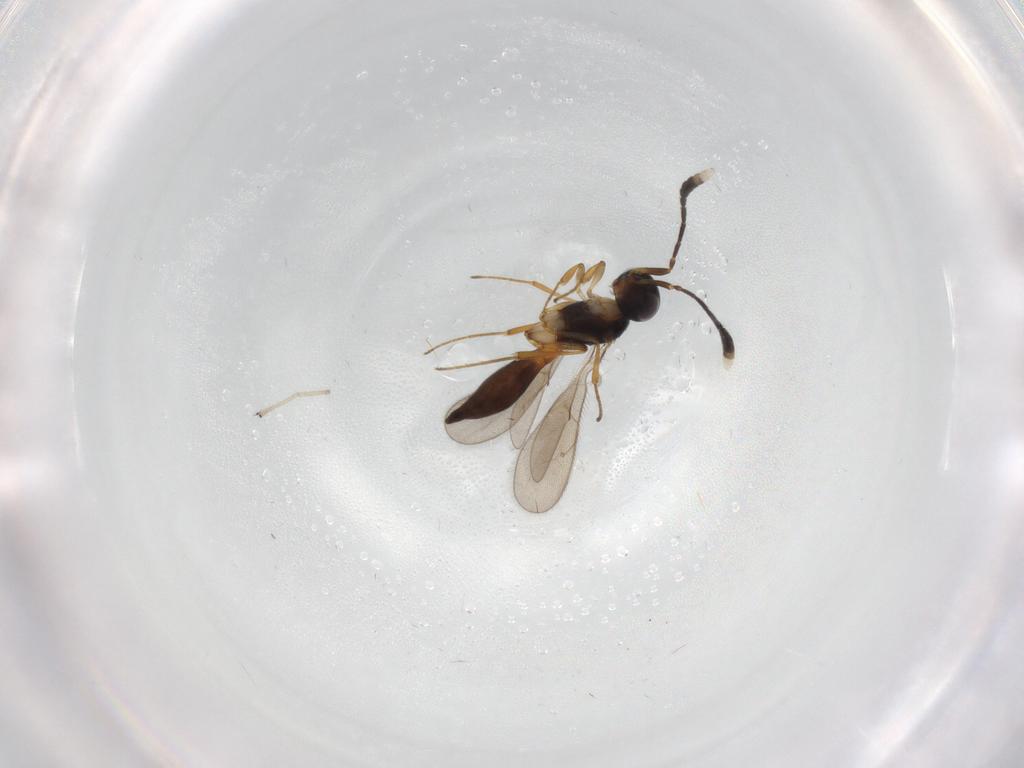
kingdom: Animalia
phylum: Arthropoda
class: Insecta
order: Hymenoptera
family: Scelionidae
